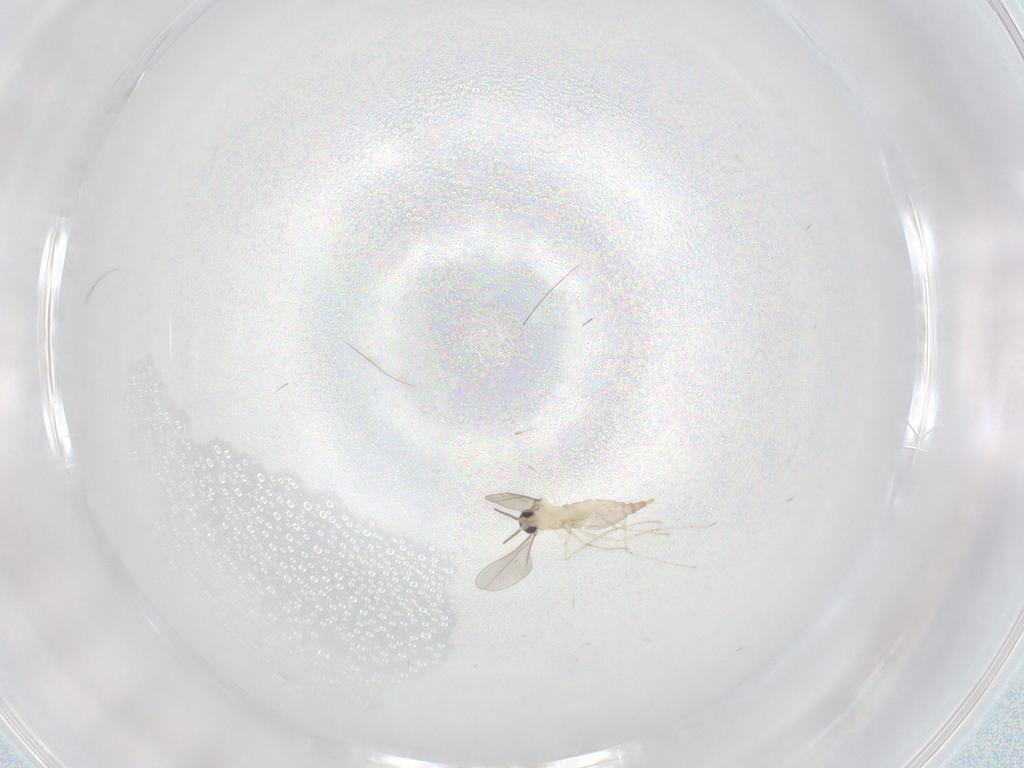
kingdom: Animalia
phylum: Arthropoda
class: Insecta
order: Diptera
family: Cecidomyiidae
